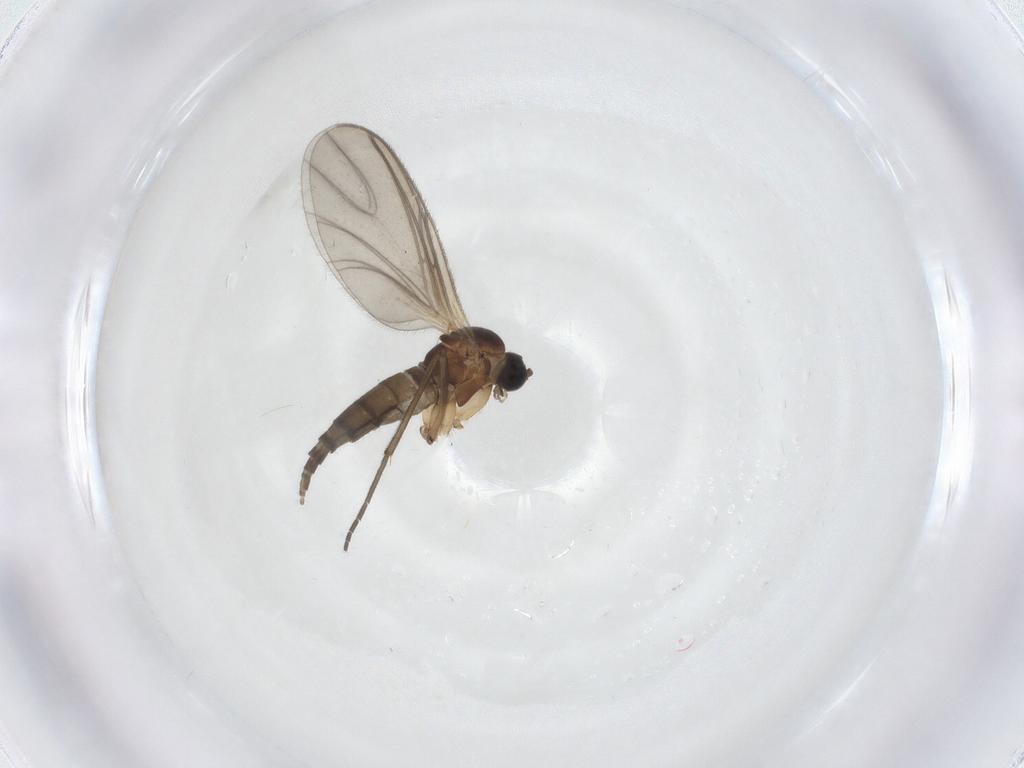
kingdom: Animalia
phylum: Arthropoda
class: Insecta
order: Diptera
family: Sciaridae
